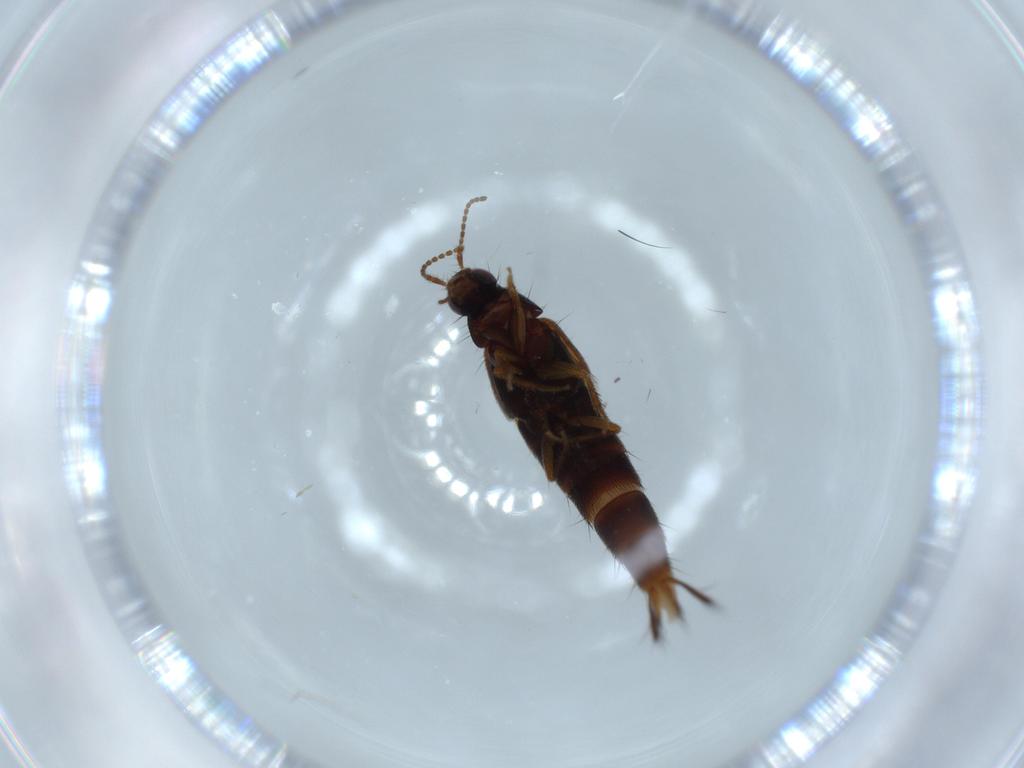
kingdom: Animalia
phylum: Arthropoda
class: Insecta
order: Coleoptera
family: Coccinellidae
